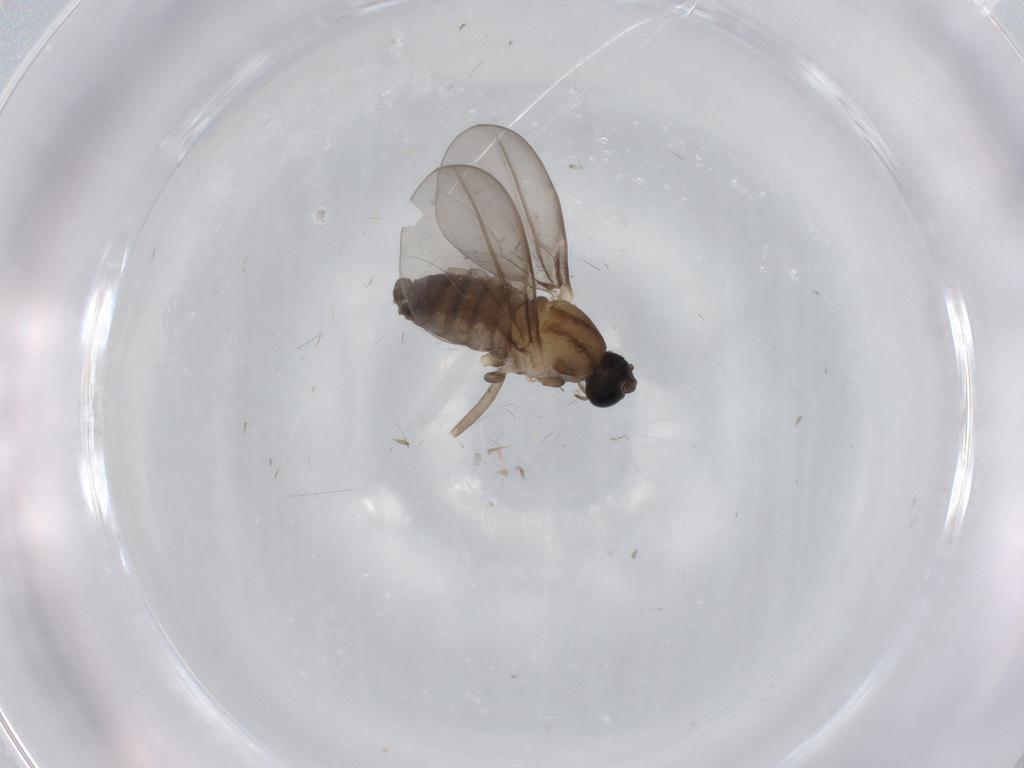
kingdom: Animalia
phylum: Arthropoda
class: Insecta
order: Diptera
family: Cecidomyiidae
